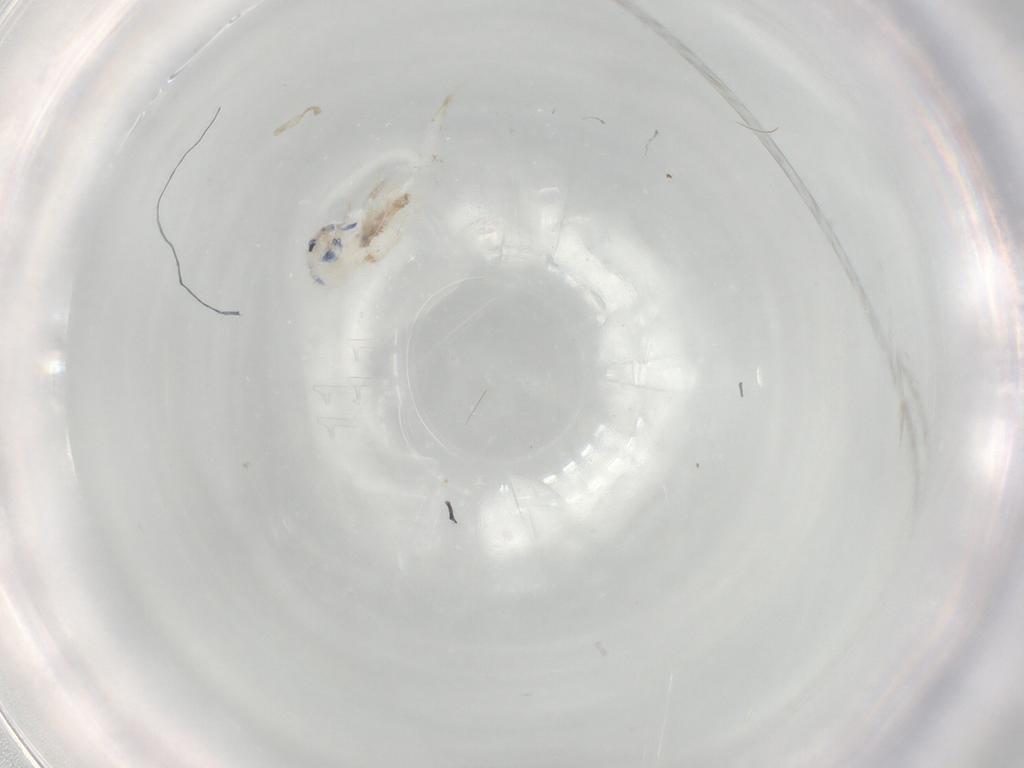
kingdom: Animalia
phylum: Arthropoda
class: Collembola
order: Entomobryomorpha
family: Entomobryidae
